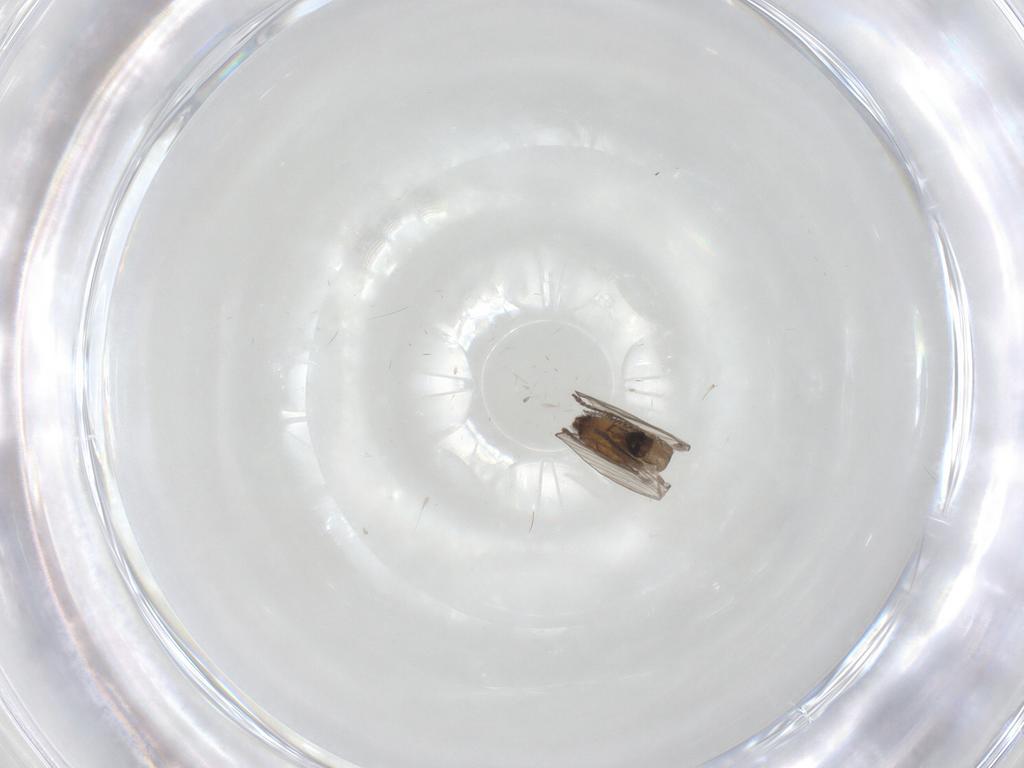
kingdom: Animalia
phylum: Arthropoda
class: Insecta
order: Diptera
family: Psychodidae
